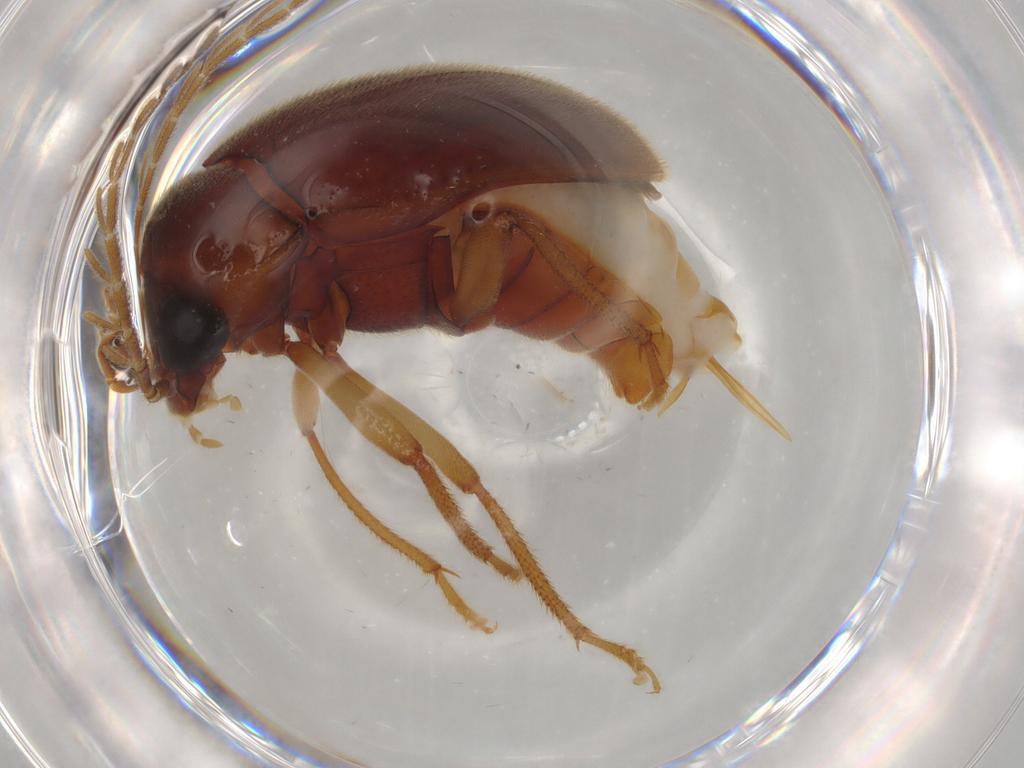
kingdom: Animalia
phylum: Arthropoda
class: Insecta
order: Coleoptera
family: Ptilodactylidae
